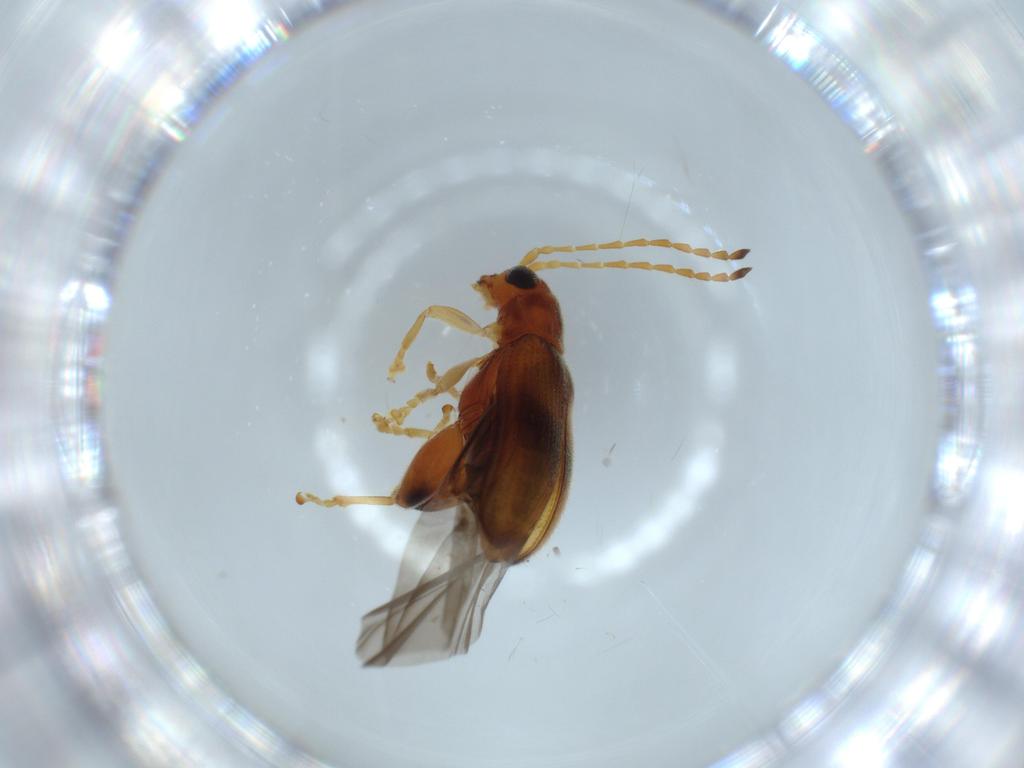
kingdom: Animalia
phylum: Arthropoda
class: Insecta
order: Coleoptera
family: Chrysomelidae
